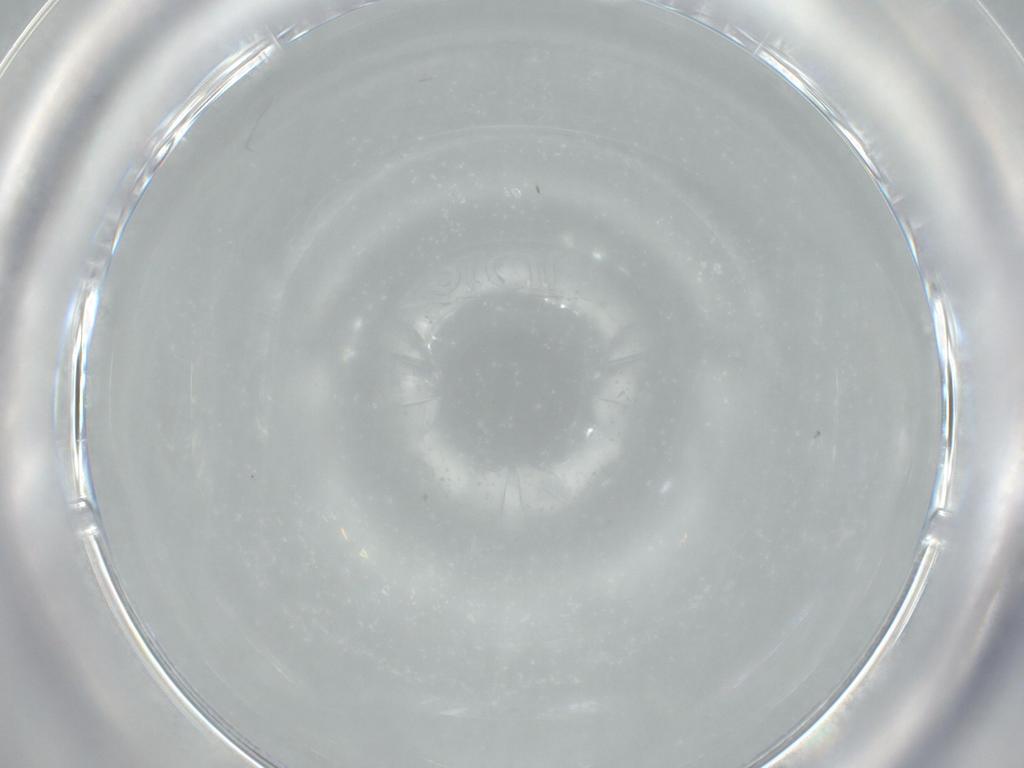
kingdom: Animalia
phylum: Arthropoda
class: Insecta
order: Diptera
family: Cecidomyiidae
